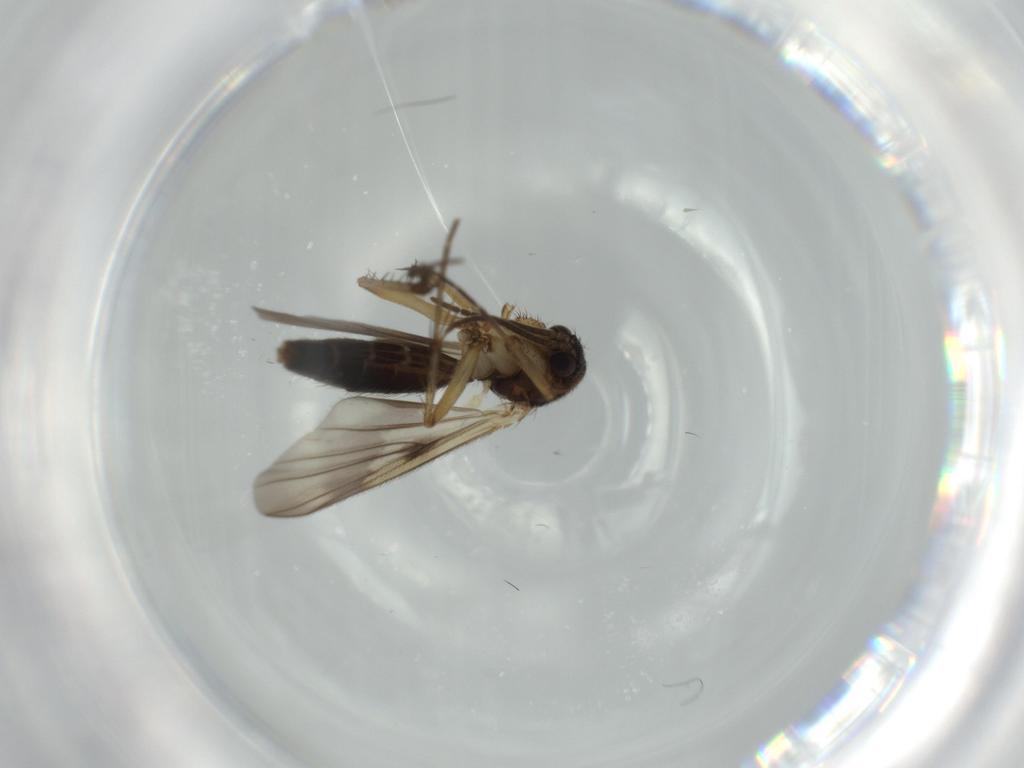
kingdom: Animalia
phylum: Arthropoda
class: Insecta
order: Diptera
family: Sciaridae
